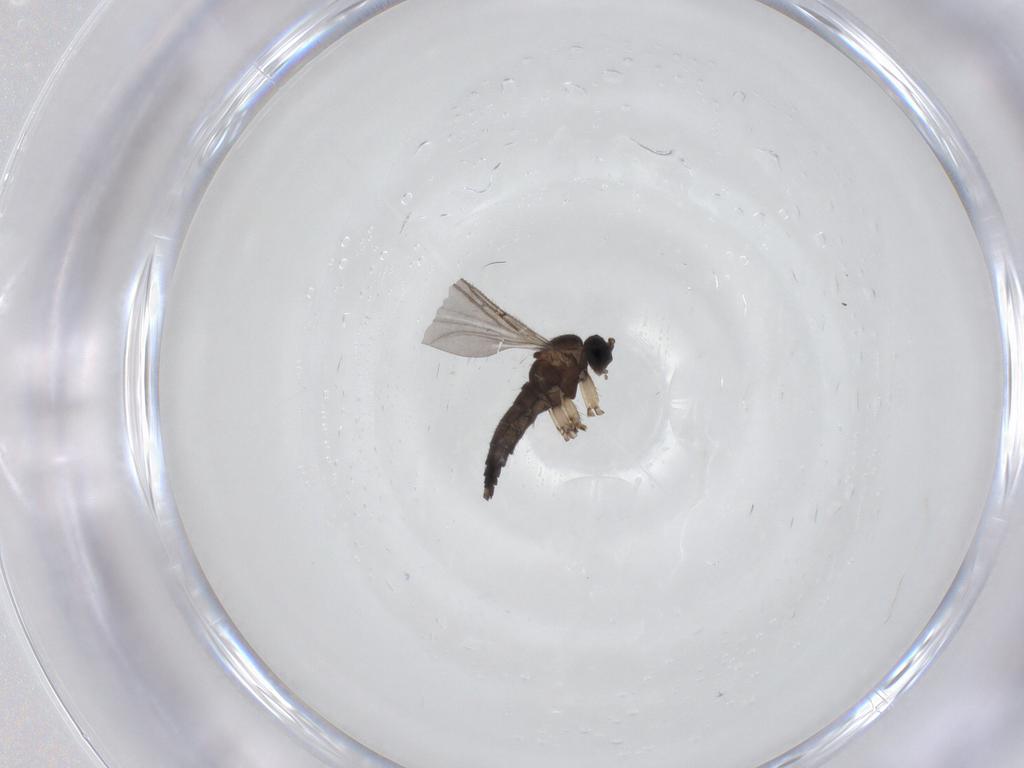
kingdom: Animalia
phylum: Arthropoda
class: Insecta
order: Diptera
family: Sciaridae
